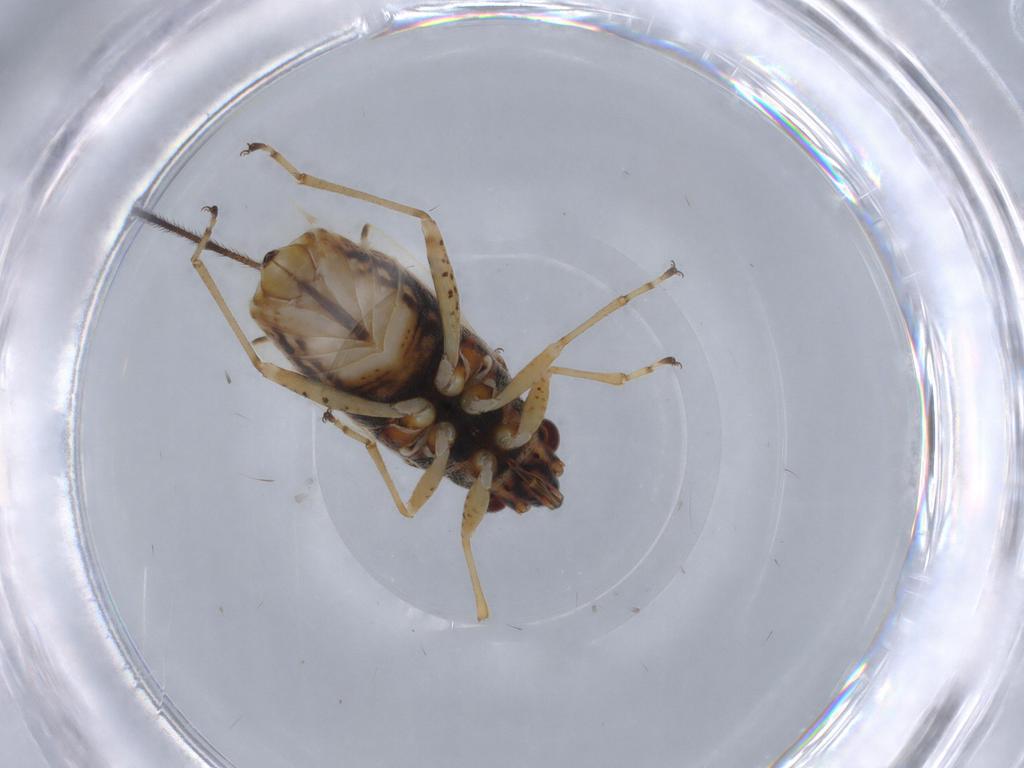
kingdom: Animalia
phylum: Arthropoda
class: Insecta
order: Hemiptera
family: Lygaeidae
